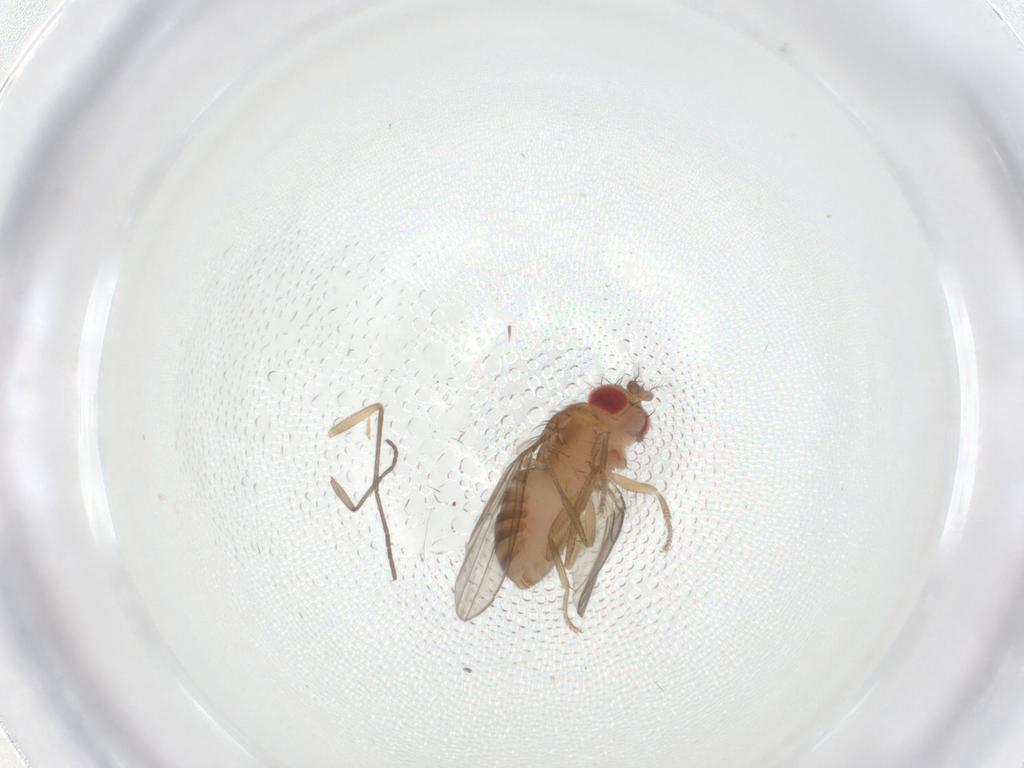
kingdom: Animalia
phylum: Arthropoda
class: Insecta
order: Diptera
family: Drosophilidae
